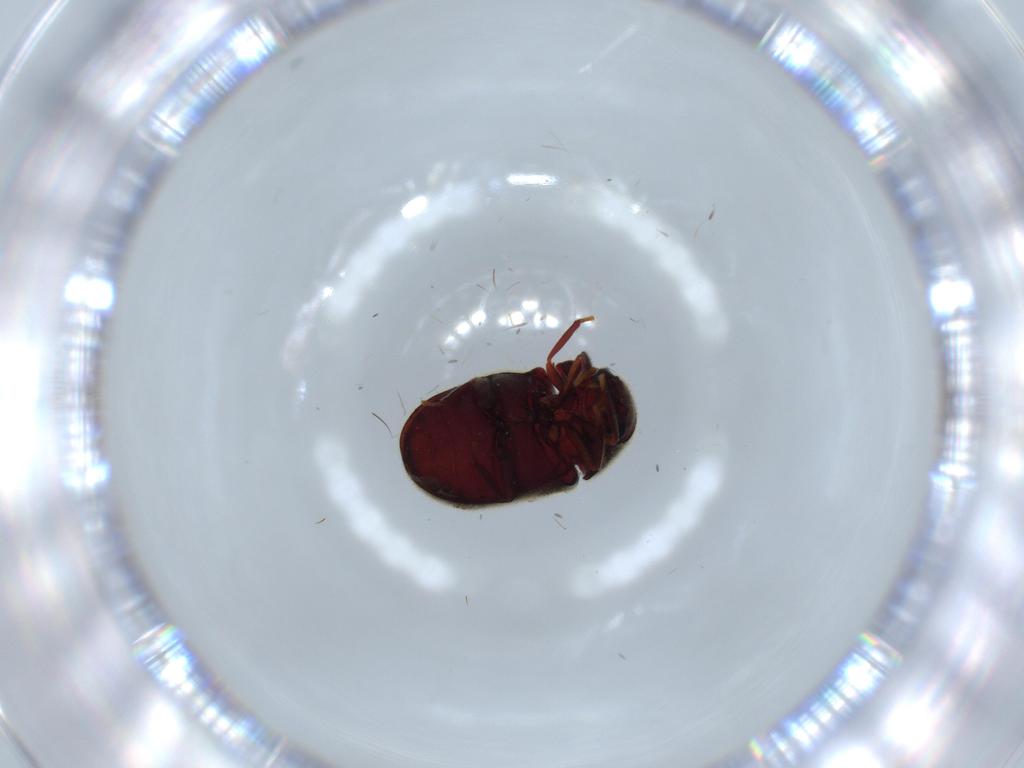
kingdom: Animalia
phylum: Arthropoda
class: Insecta
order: Coleoptera
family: Ptinidae
